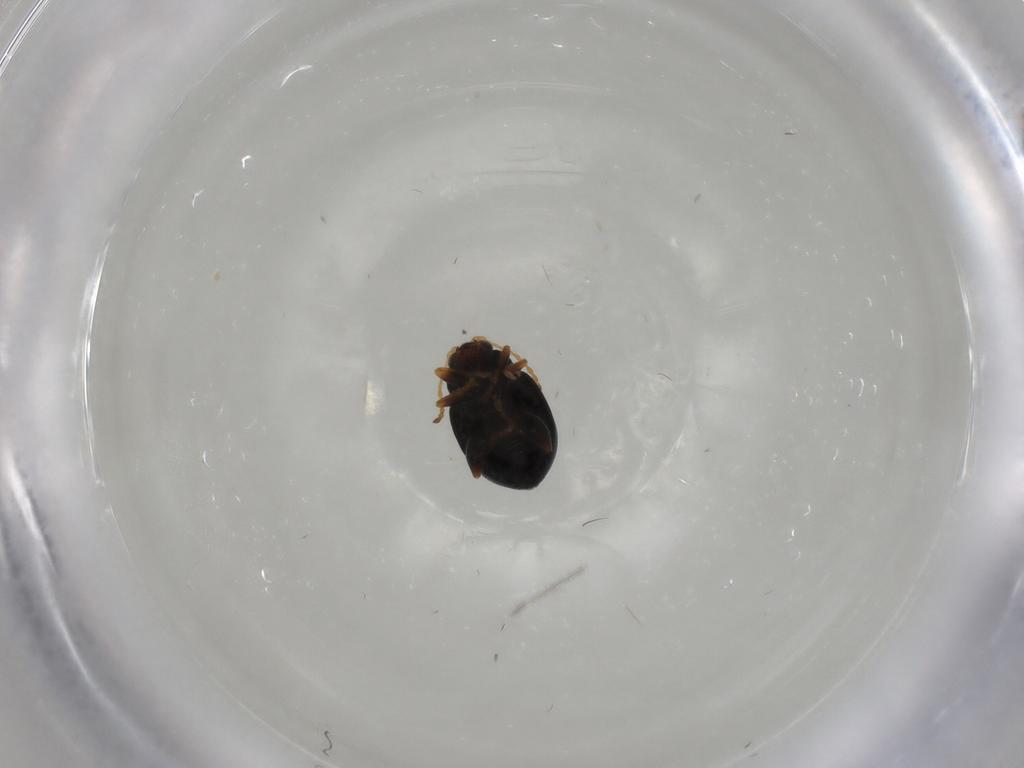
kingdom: Animalia
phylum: Arthropoda
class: Insecta
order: Coleoptera
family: Chrysomelidae
